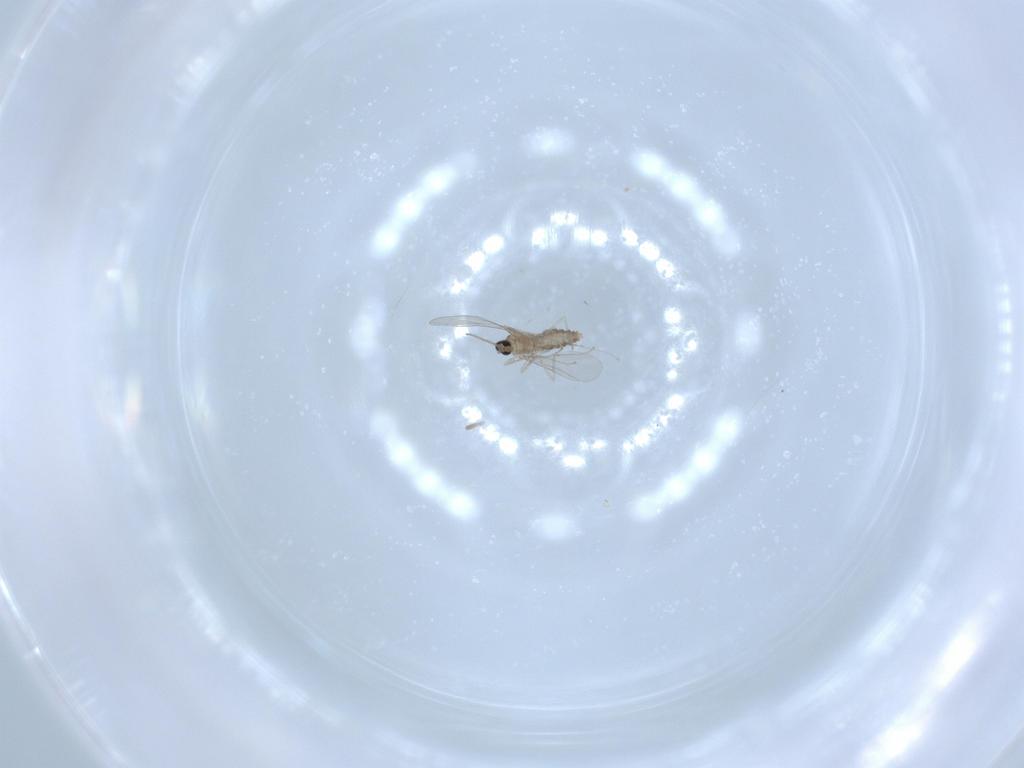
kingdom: Animalia
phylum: Arthropoda
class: Insecta
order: Diptera
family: Cecidomyiidae
